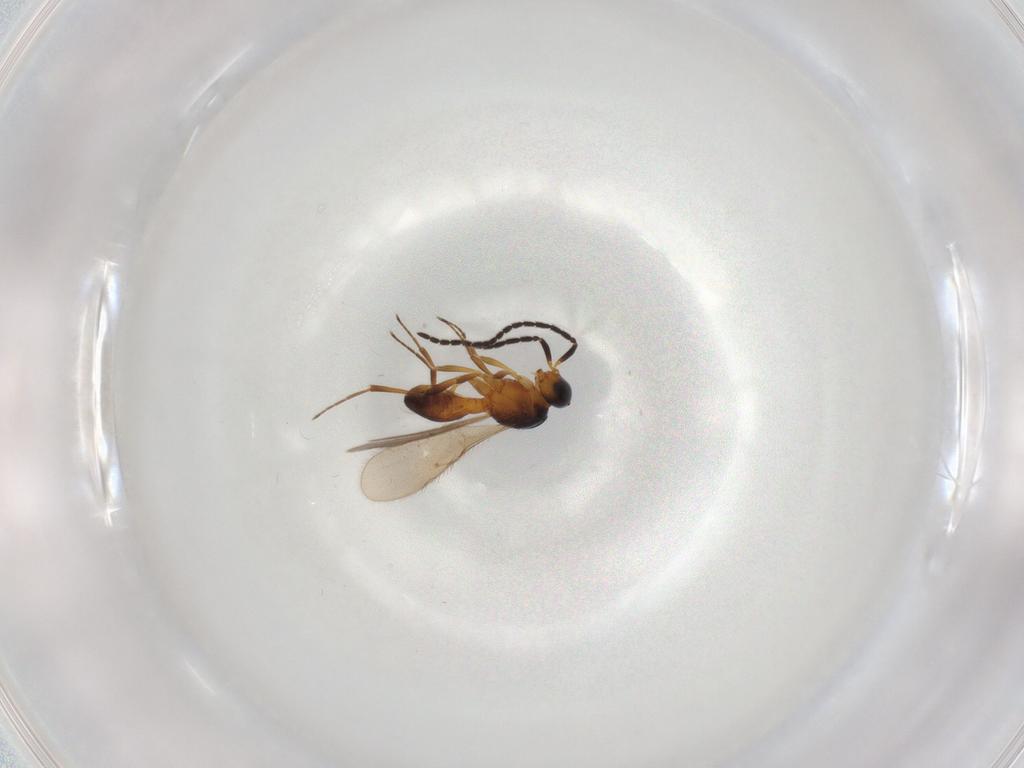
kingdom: Animalia
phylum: Arthropoda
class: Insecta
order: Hymenoptera
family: Scelionidae
